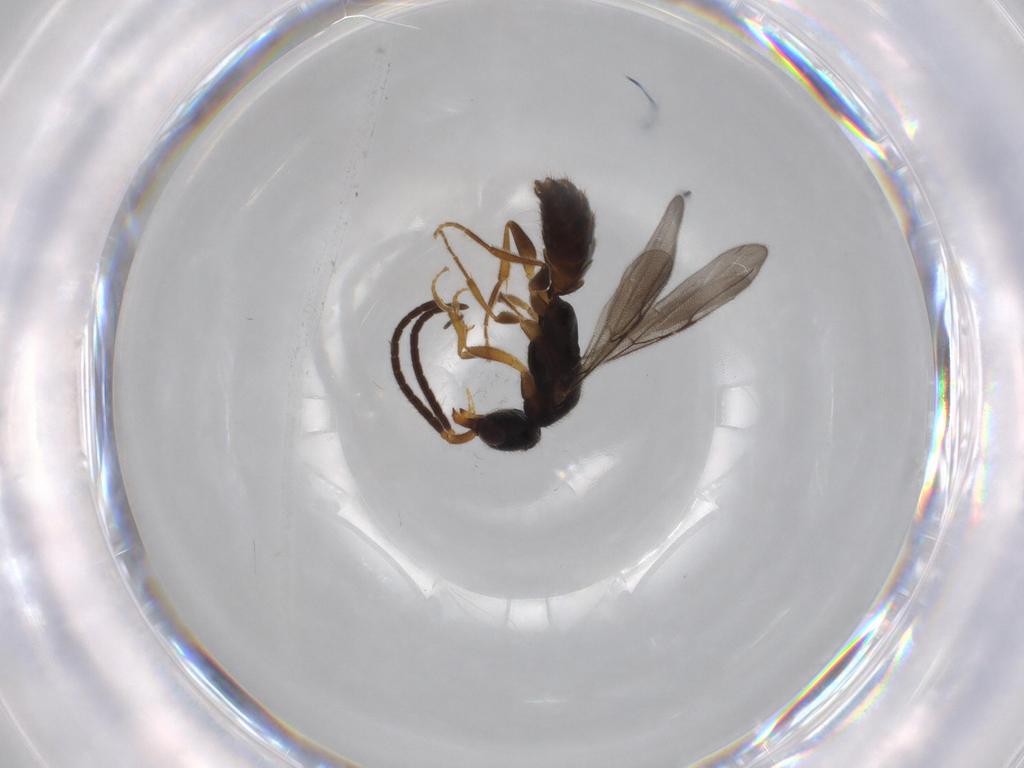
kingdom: Animalia
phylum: Arthropoda
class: Insecta
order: Hymenoptera
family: Bethylidae
